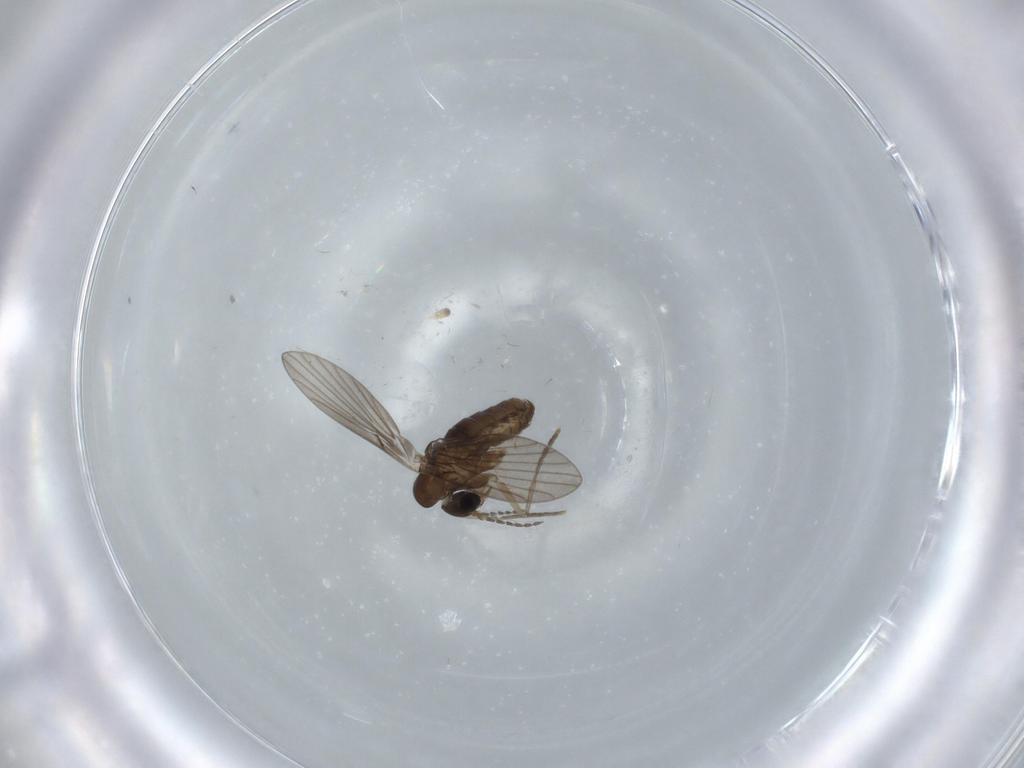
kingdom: Animalia
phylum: Arthropoda
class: Insecta
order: Diptera
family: Psychodidae
